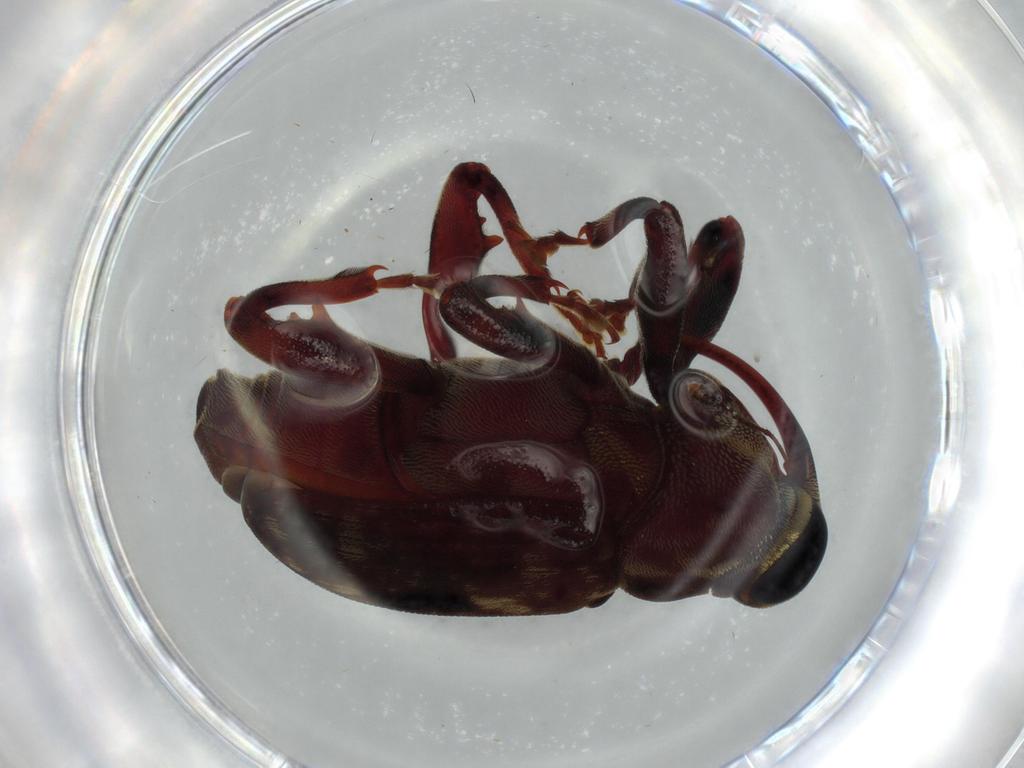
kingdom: Animalia
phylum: Arthropoda
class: Insecta
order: Coleoptera
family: Curculionidae
